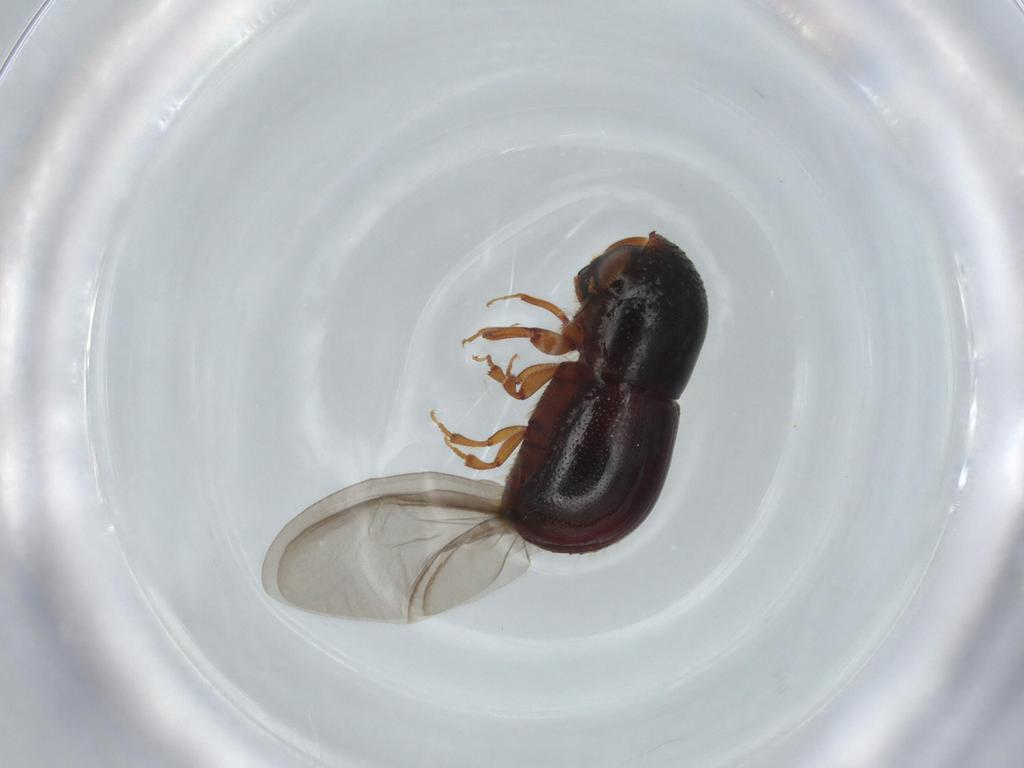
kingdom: Animalia
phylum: Arthropoda
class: Insecta
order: Coleoptera
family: Curculionidae
